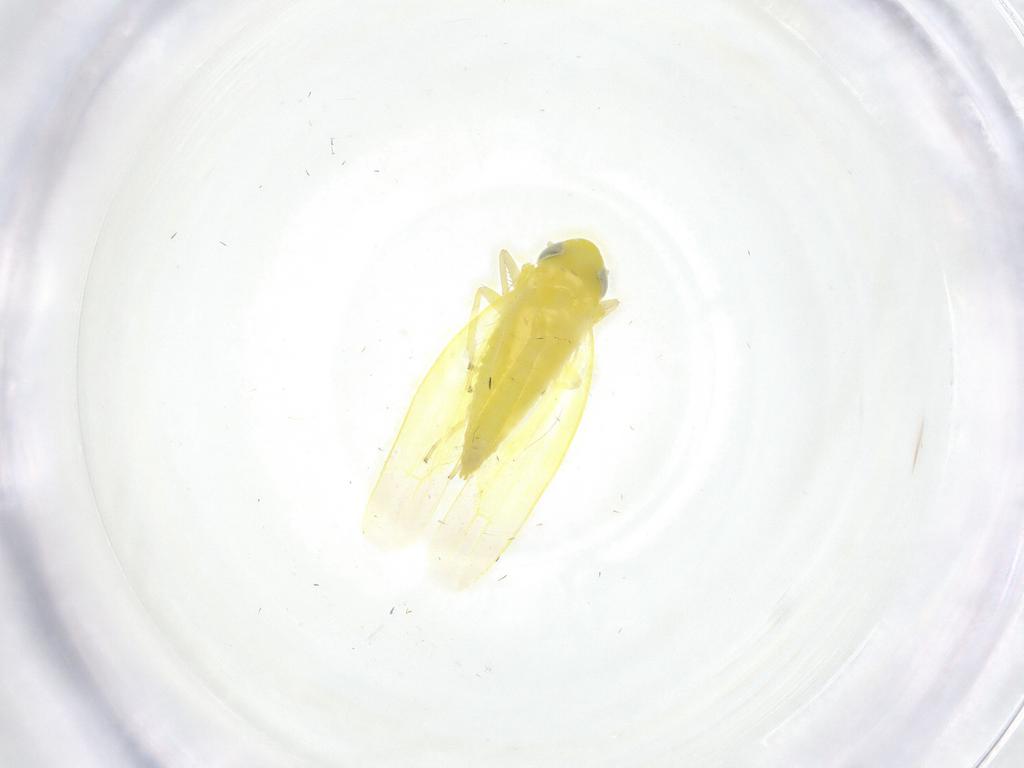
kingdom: Animalia
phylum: Arthropoda
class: Insecta
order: Hemiptera
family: Cicadellidae
